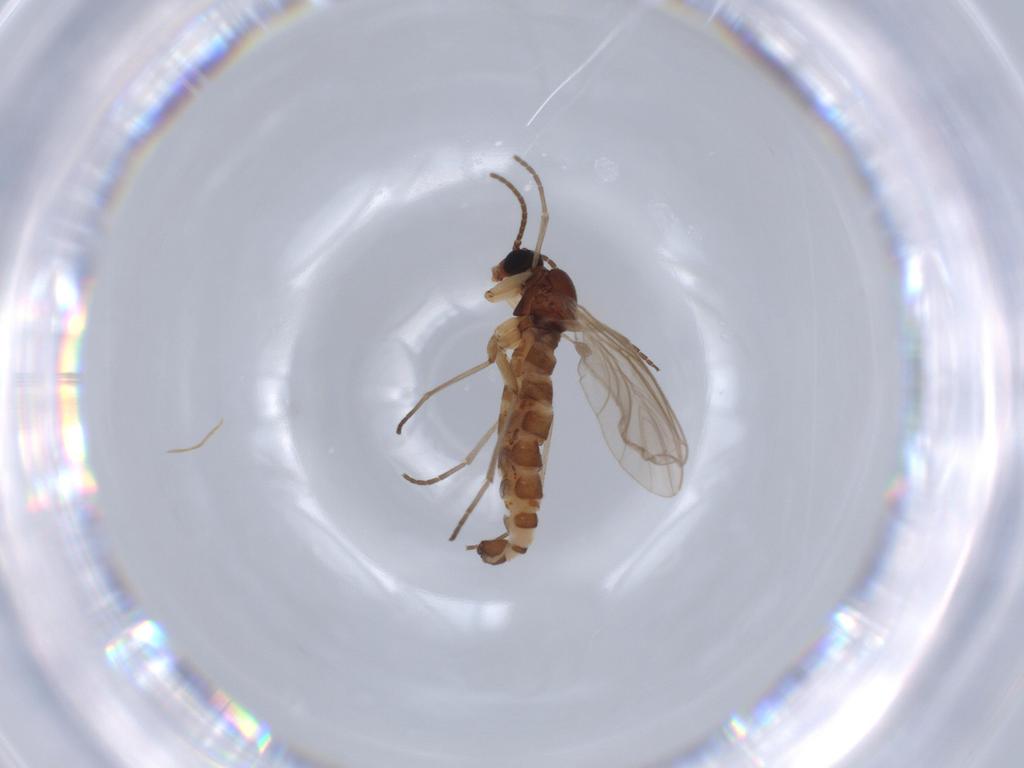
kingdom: Animalia
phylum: Arthropoda
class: Insecta
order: Diptera
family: Sciaridae
